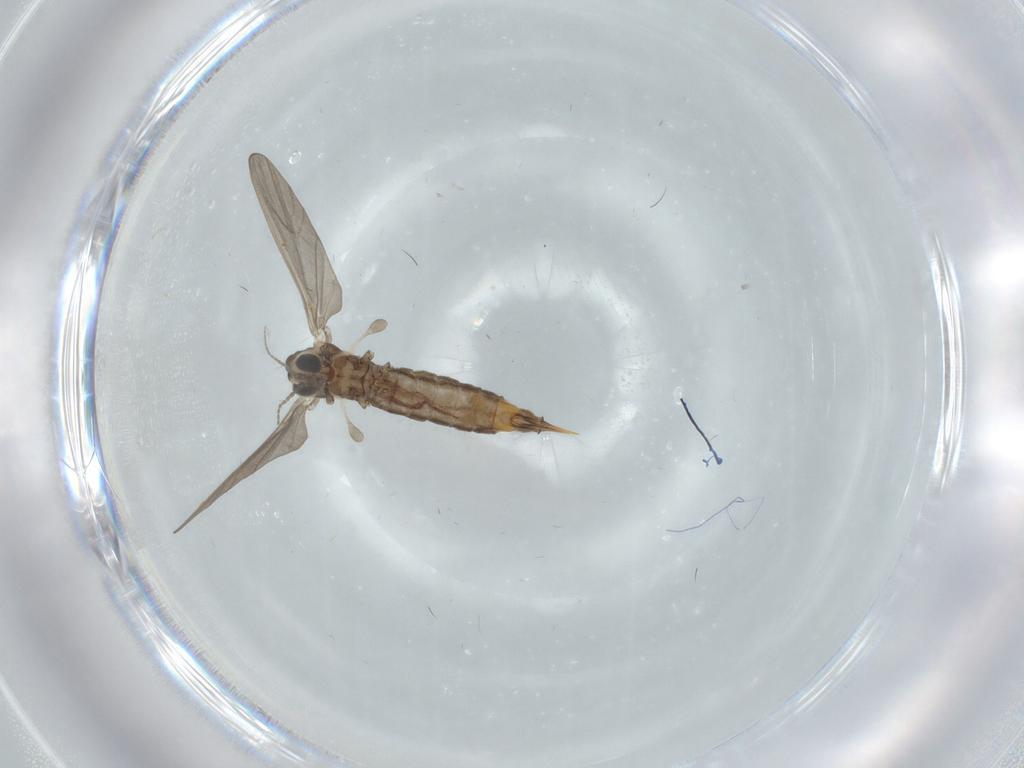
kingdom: Animalia
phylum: Arthropoda
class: Insecta
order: Diptera
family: Limoniidae
